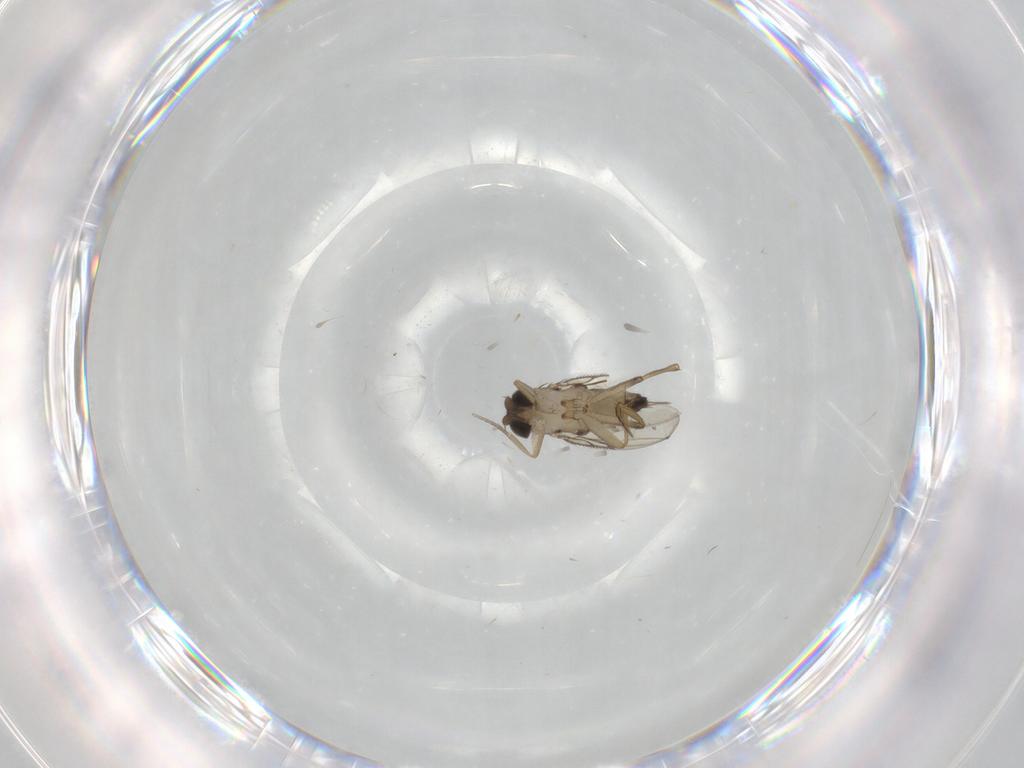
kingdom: Animalia
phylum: Arthropoda
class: Insecta
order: Diptera
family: Phoridae
